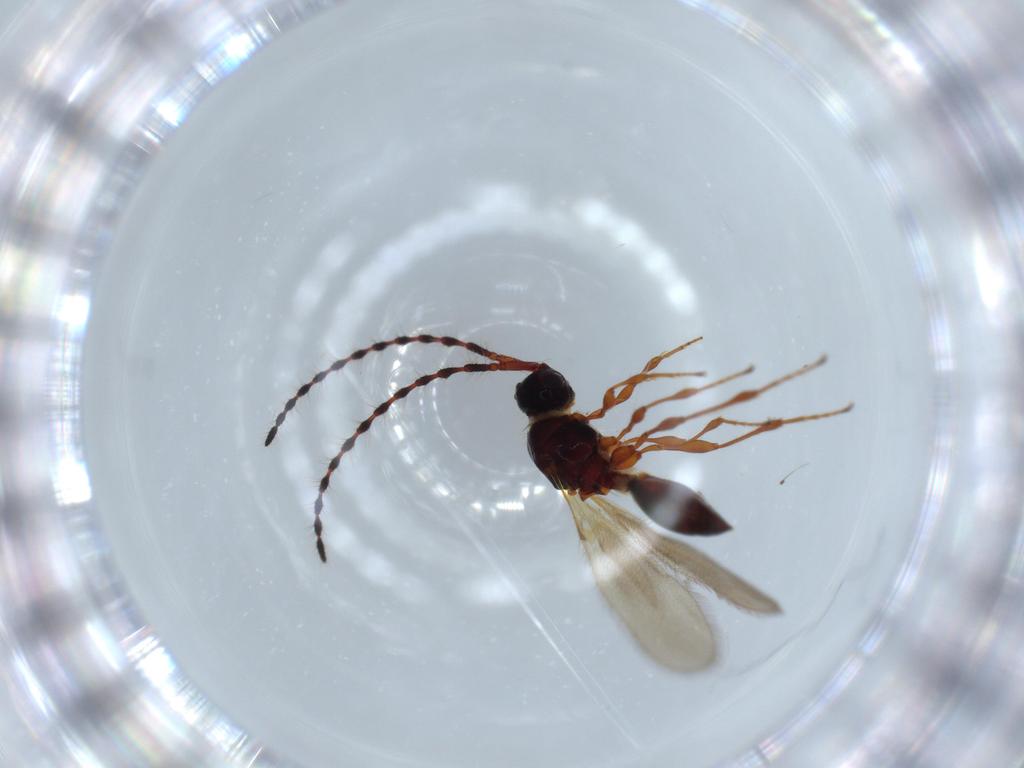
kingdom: Animalia
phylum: Arthropoda
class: Insecta
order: Hymenoptera
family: Diapriidae
